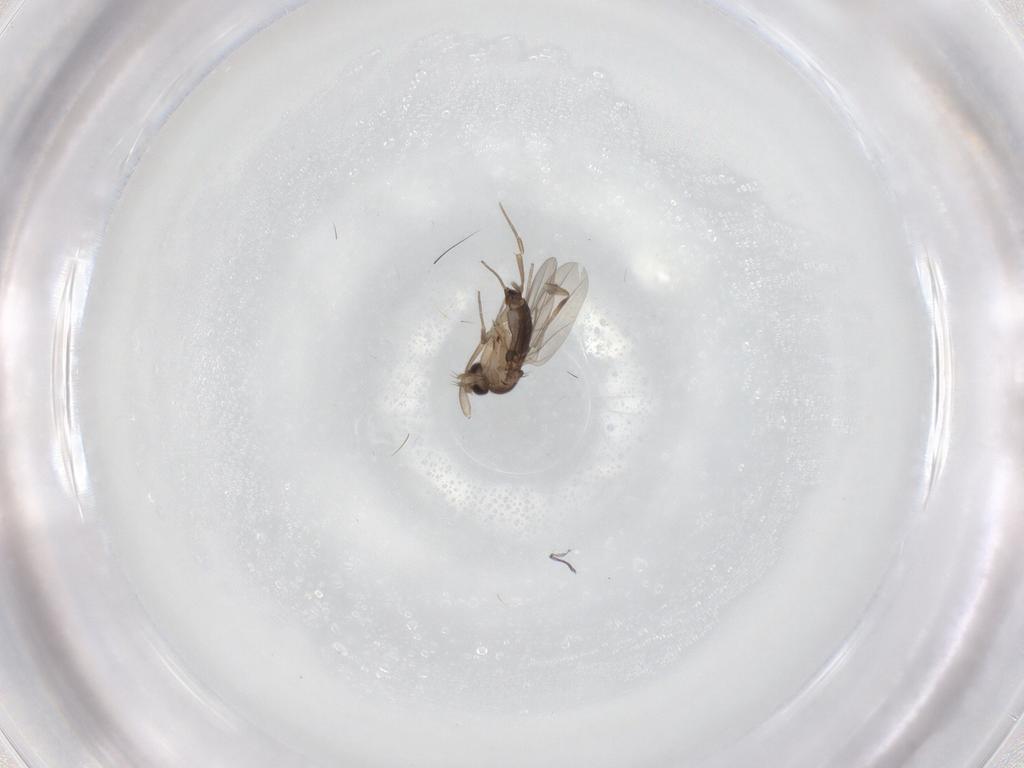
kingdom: Animalia
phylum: Arthropoda
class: Insecta
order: Diptera
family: Phoridae
